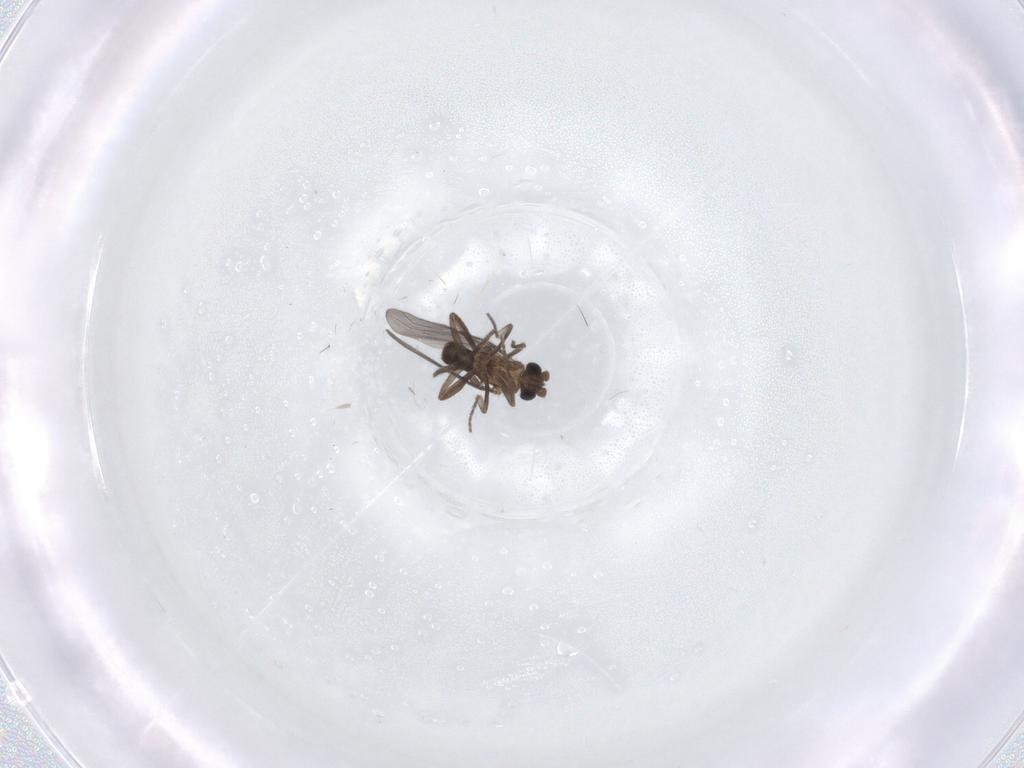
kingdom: Animalia
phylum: Arthropoda
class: Insecta
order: Diptera
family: Phoridae
